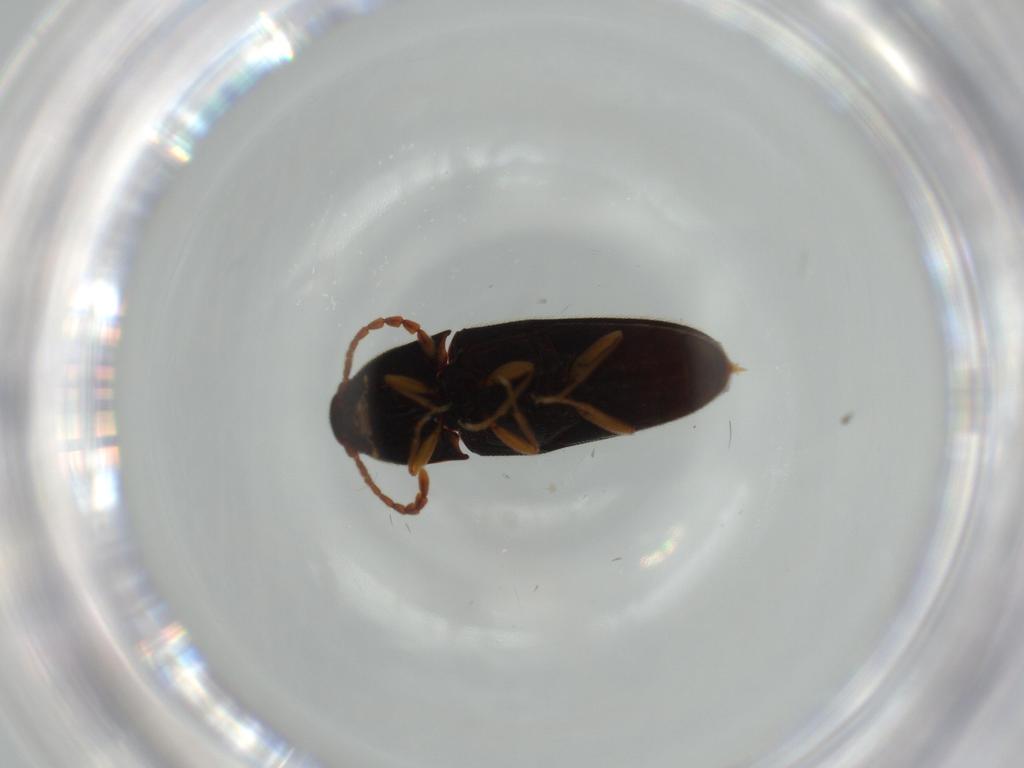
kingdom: Animalia
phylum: Arthropoda
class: Insecta
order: Coleoptera
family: Elateridae
